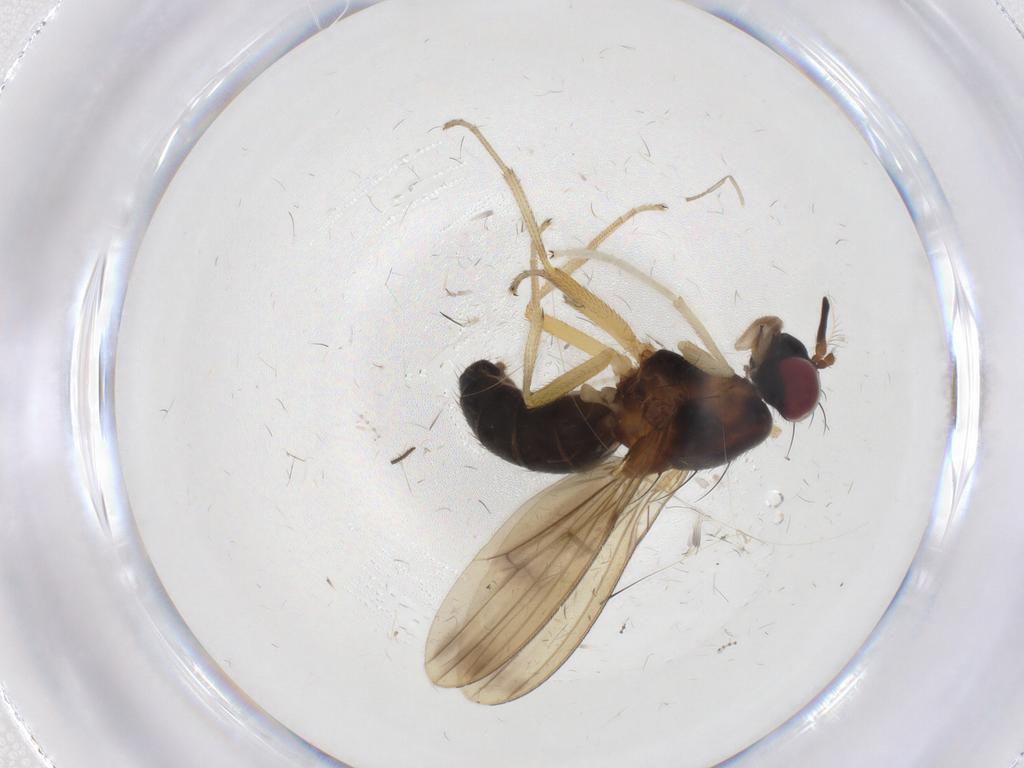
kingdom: Animalia
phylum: Arthropoda
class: Insecta
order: Diptera
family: Lauxaniidae
